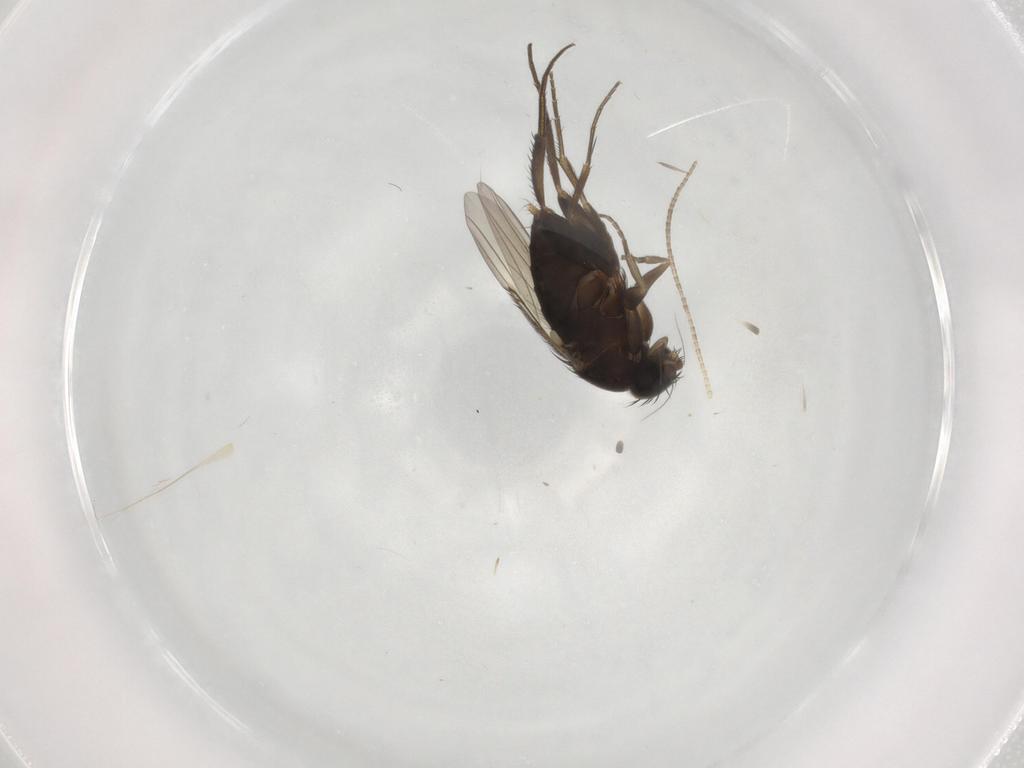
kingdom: Animalia
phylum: Arthropoda
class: Insecta
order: Diptera
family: Phoridae
